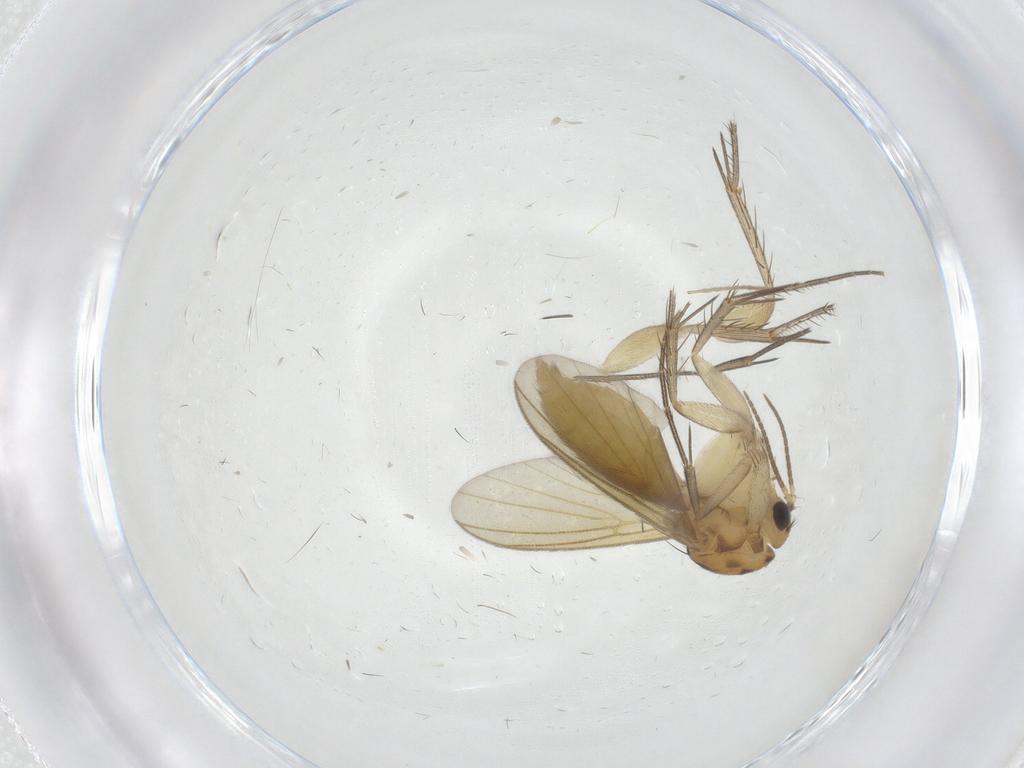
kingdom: Animalia
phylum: Arthropoda
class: Insecta
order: Diptera
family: Mycetophilidae
